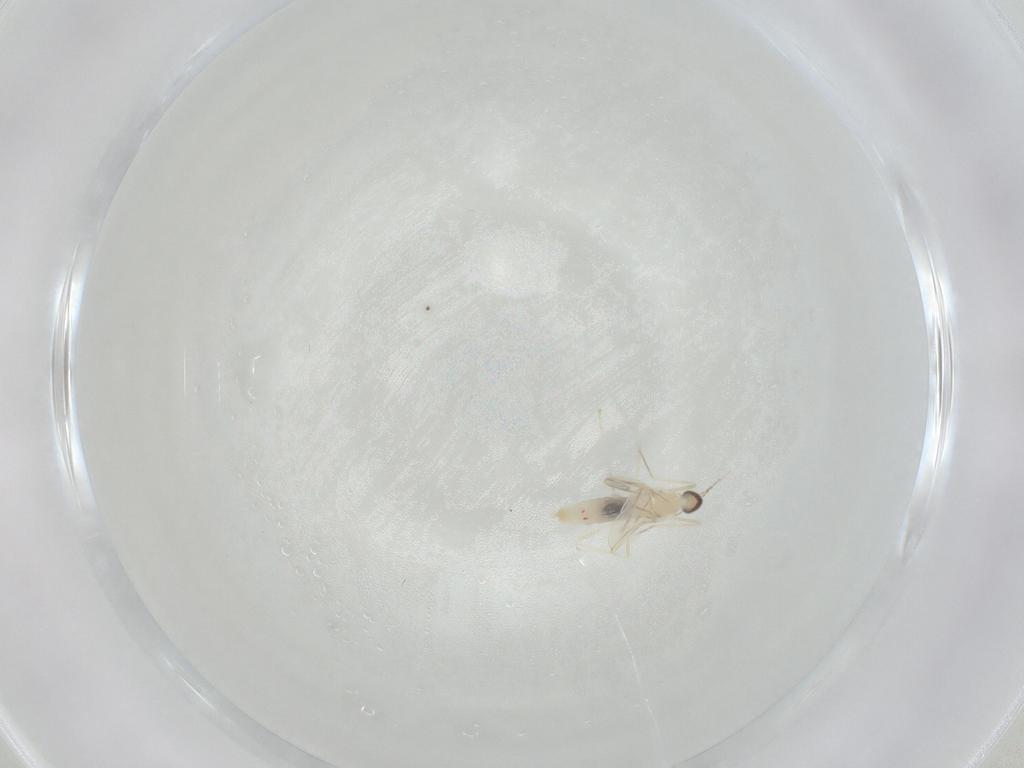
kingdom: Animalia
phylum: Arthropoda
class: Insecta
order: Diptera
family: Cecidomyiidae
